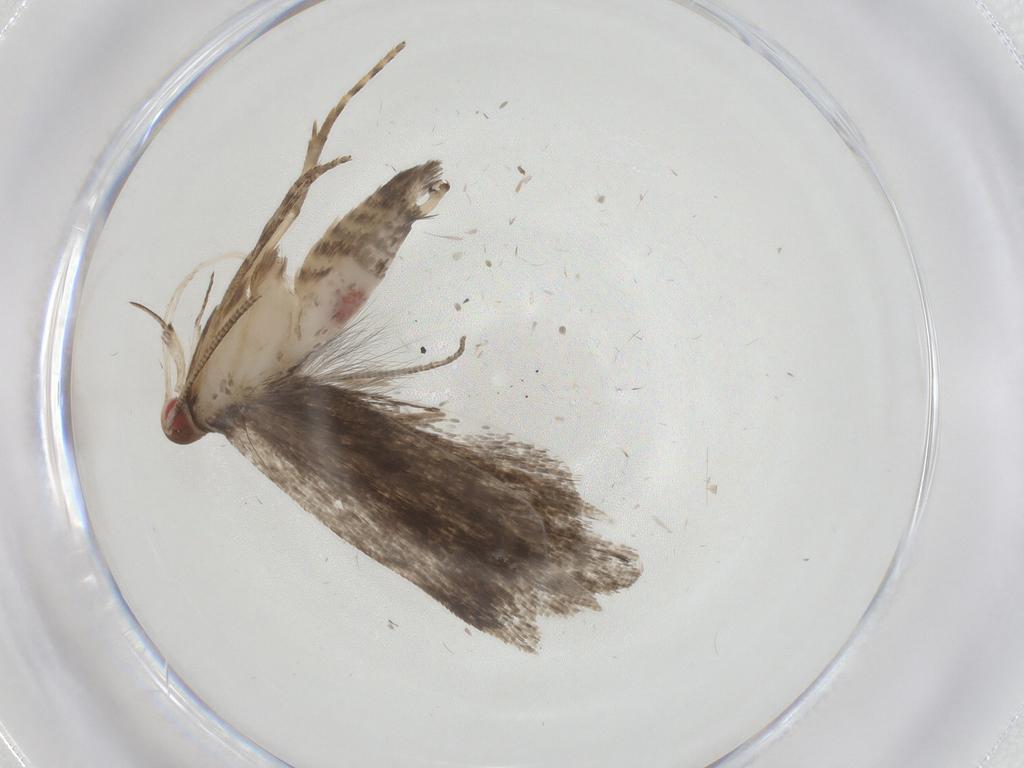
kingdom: Animalia
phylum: Arthropoda
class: Insecta
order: Lepidoptera
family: Gelechiidae
